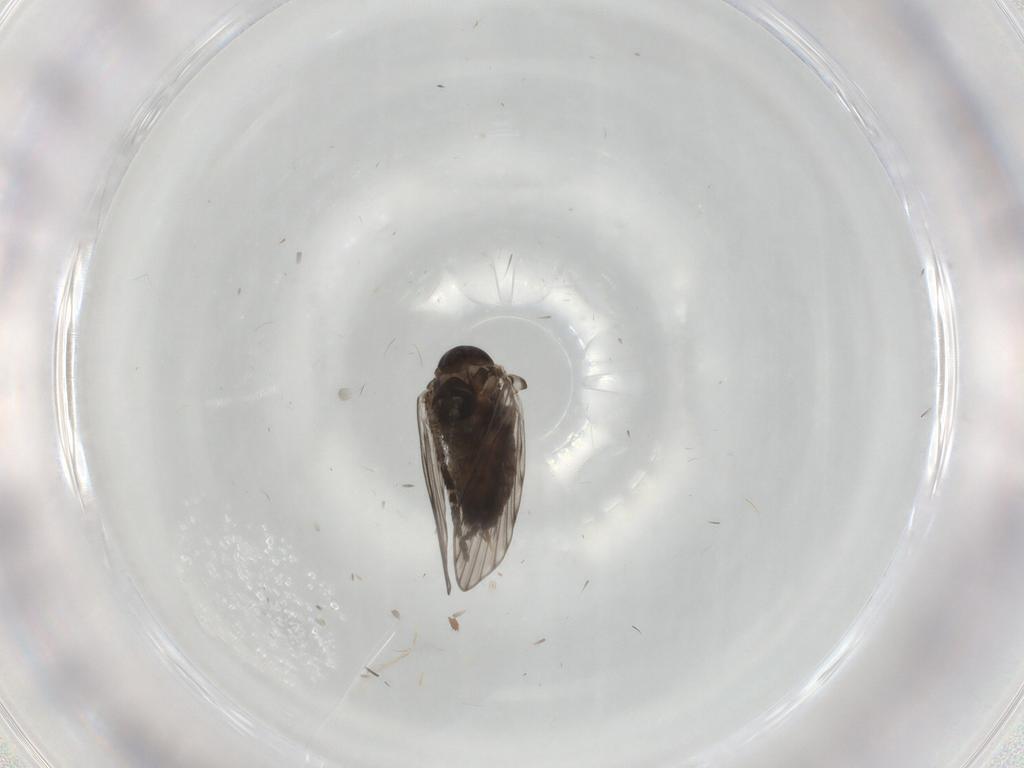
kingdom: Animalia
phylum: Arthropoda
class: Insecta
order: Diptera
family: Psychodidae
